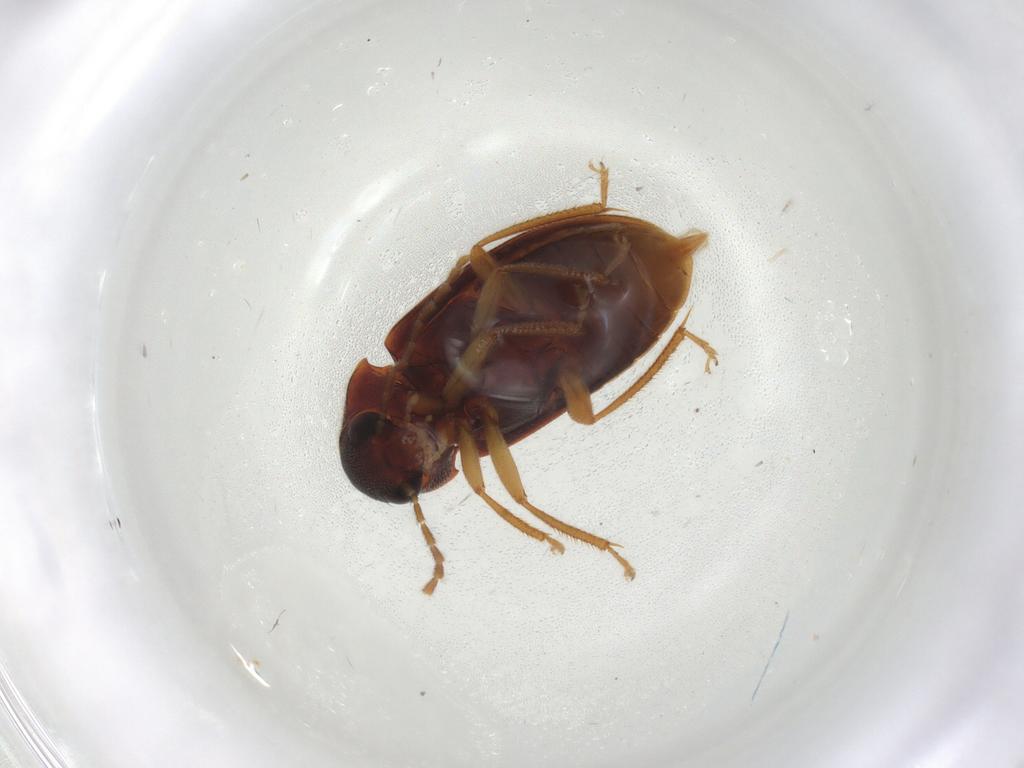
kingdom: Animalia
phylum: Arthropoda
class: Insecta
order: Coleoptera
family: Ptilodactylidae
